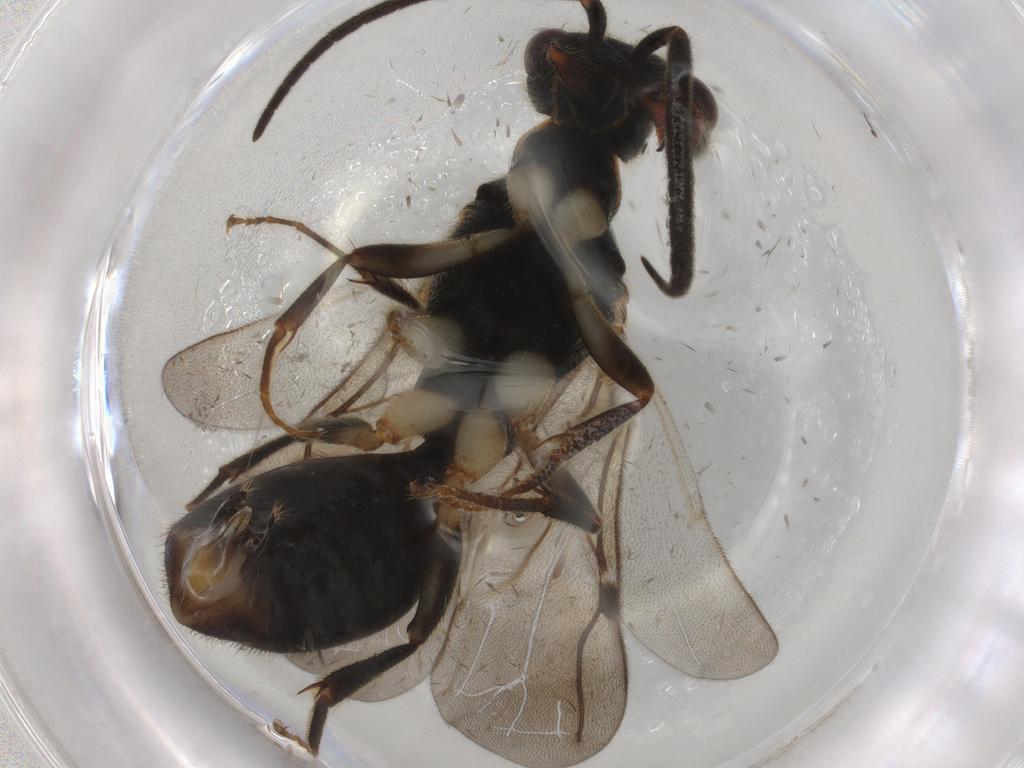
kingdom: Animalia
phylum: Arthropoda
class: Insecta
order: Hymenoptera
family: Bethylidae
